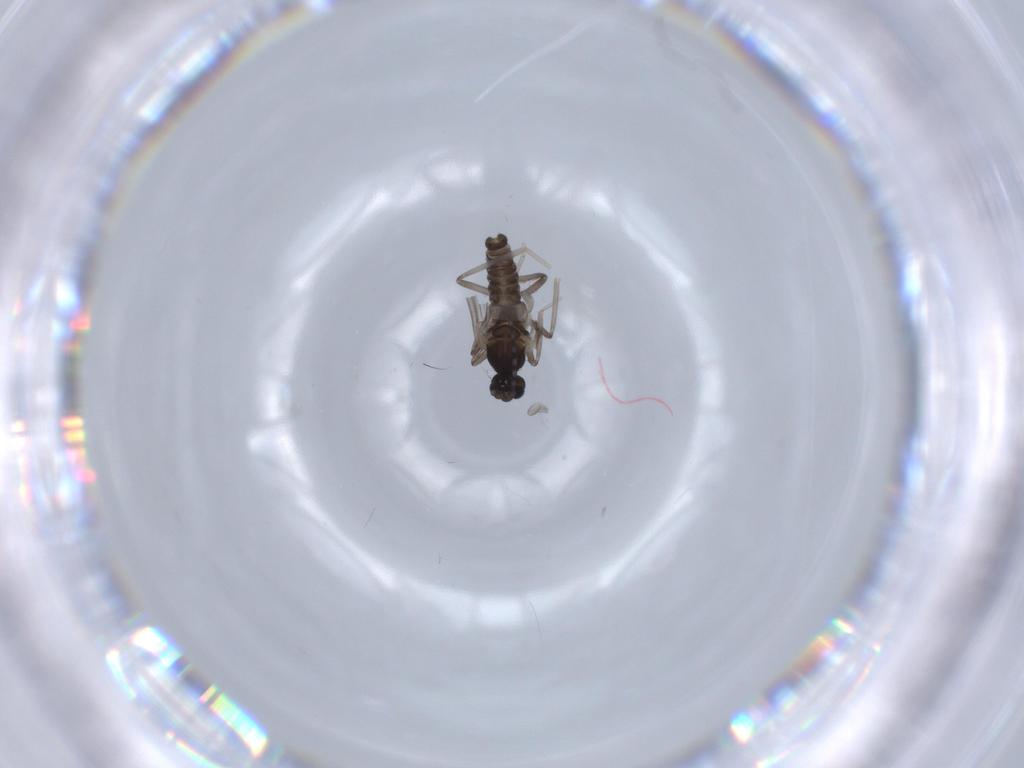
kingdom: Animalia
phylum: Arthropoda
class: Insecta
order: Diptera
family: Cecidomyiidae
